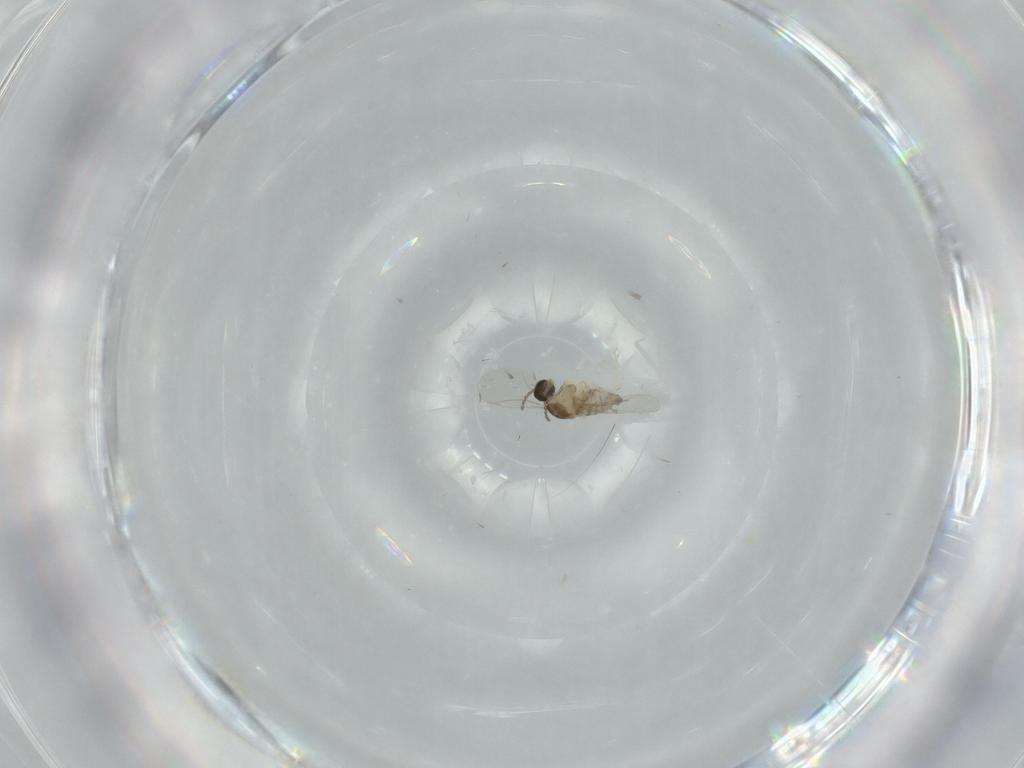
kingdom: Animalia
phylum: Arthropoda
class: Insecta
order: Diptera
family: Cecidomyiidae
